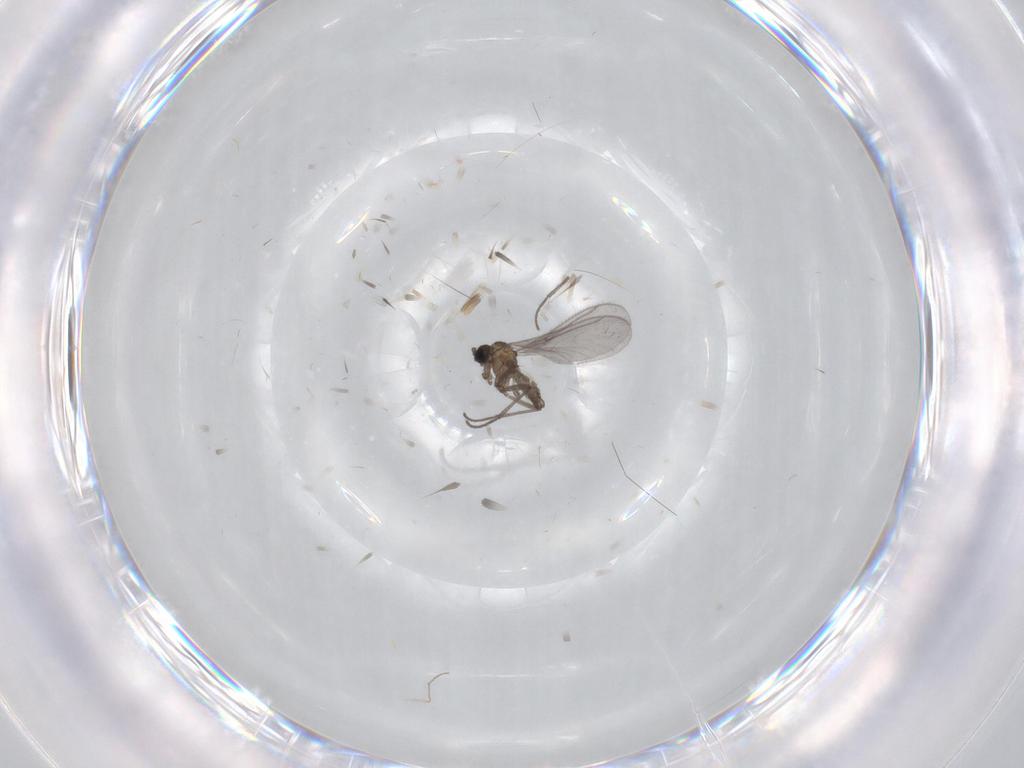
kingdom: Animalia
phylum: Arthropoda
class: Insecta
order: Diptera
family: Sciaridae
